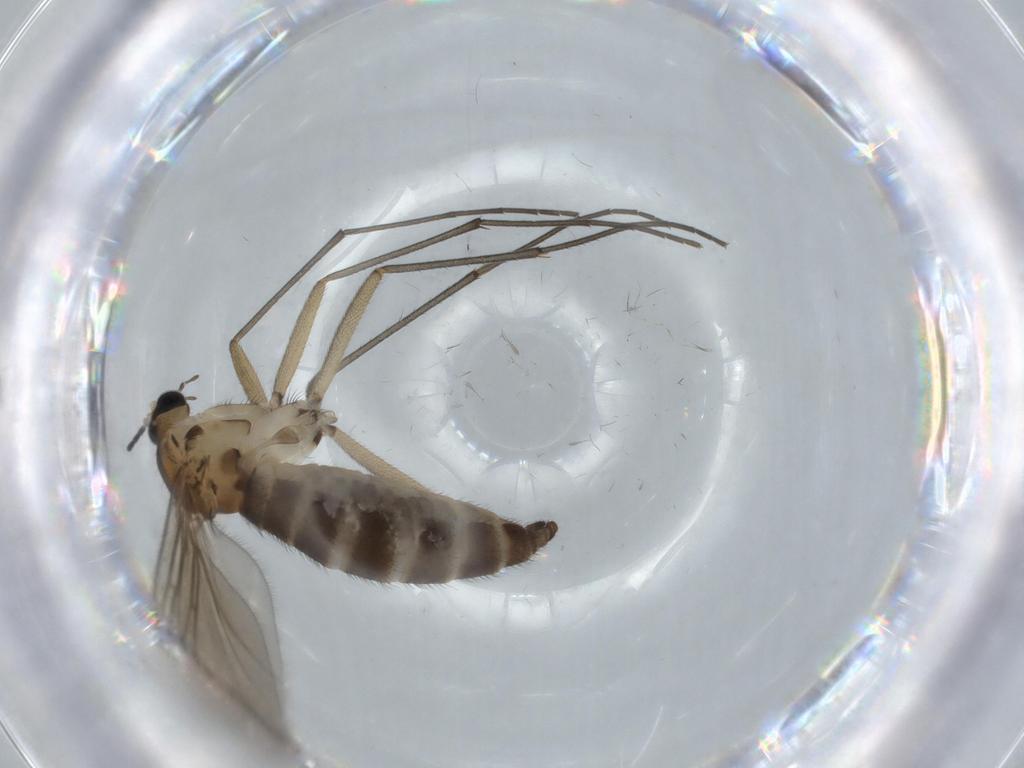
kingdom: Animalia
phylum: Arthropoda
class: Insecta
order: Diptera
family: Sciaridae
